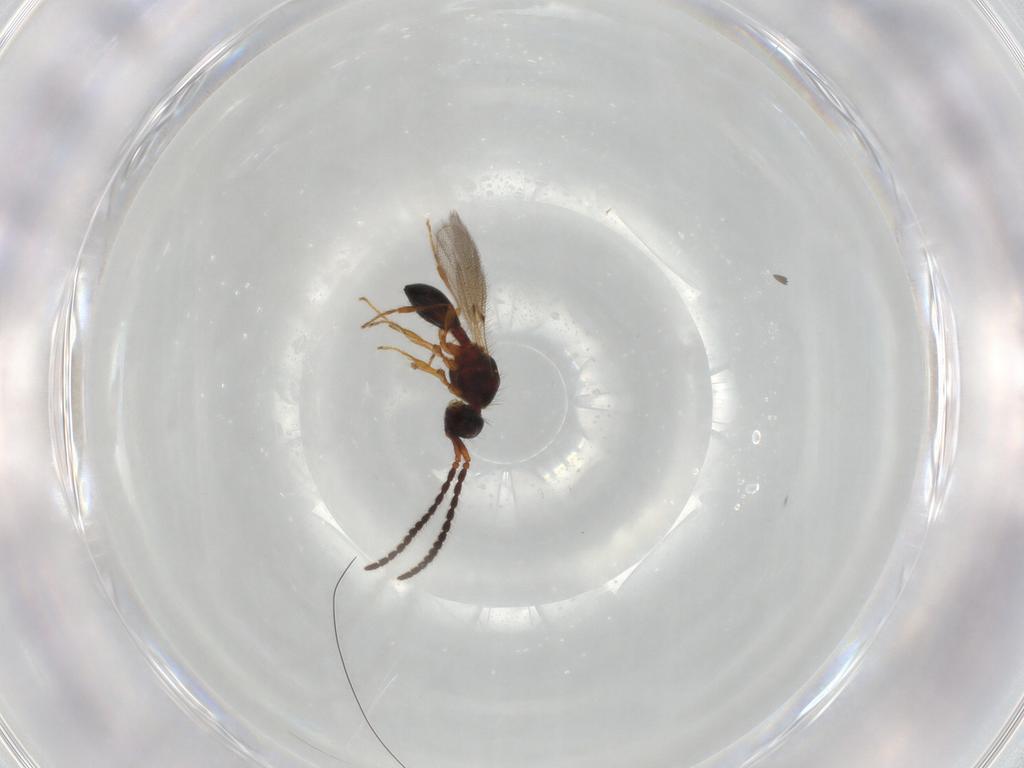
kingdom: Animalia
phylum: Arthropoda
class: Insecta
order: Hymenoptera
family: Diapriidae
